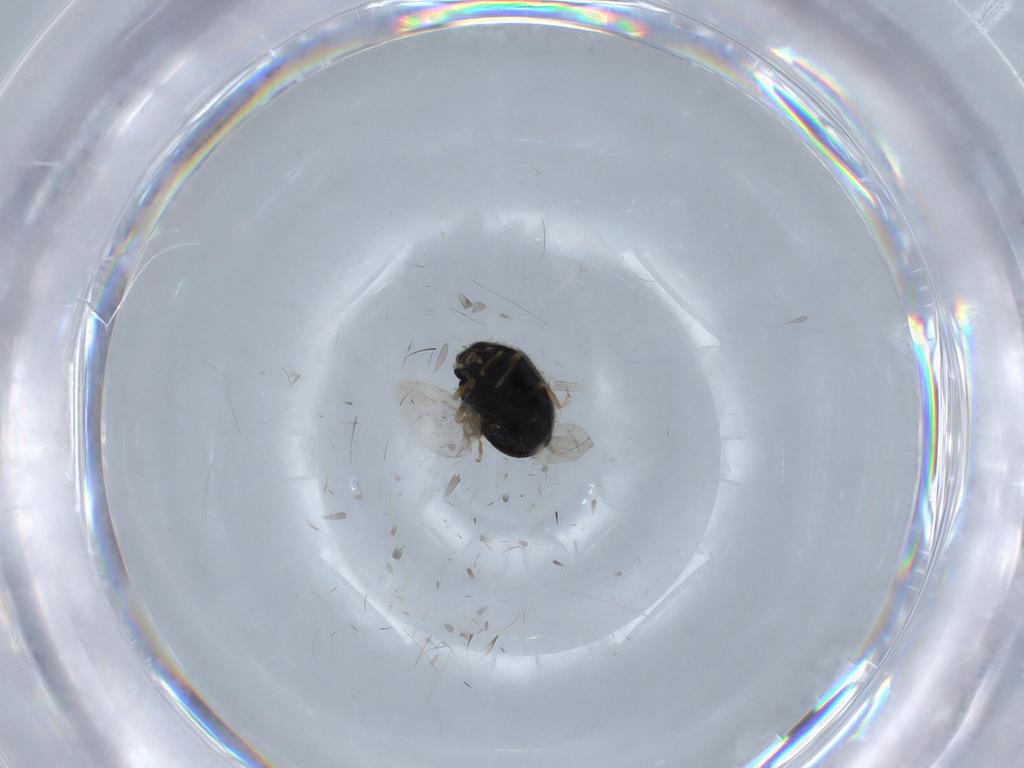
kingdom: Animalia
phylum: Arthropoda
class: Insecta
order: Coleoptera
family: Coccinellidae
